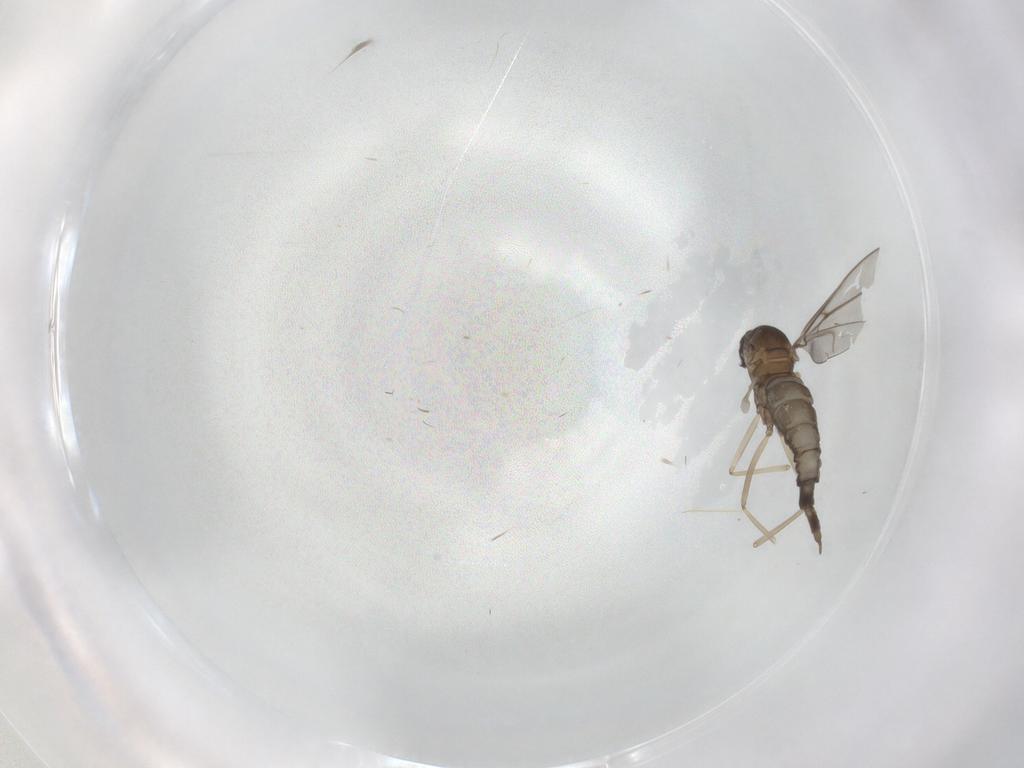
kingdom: Animalia
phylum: Arthropoda
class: Insecta
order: Diptera
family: Cecidomyiidae
